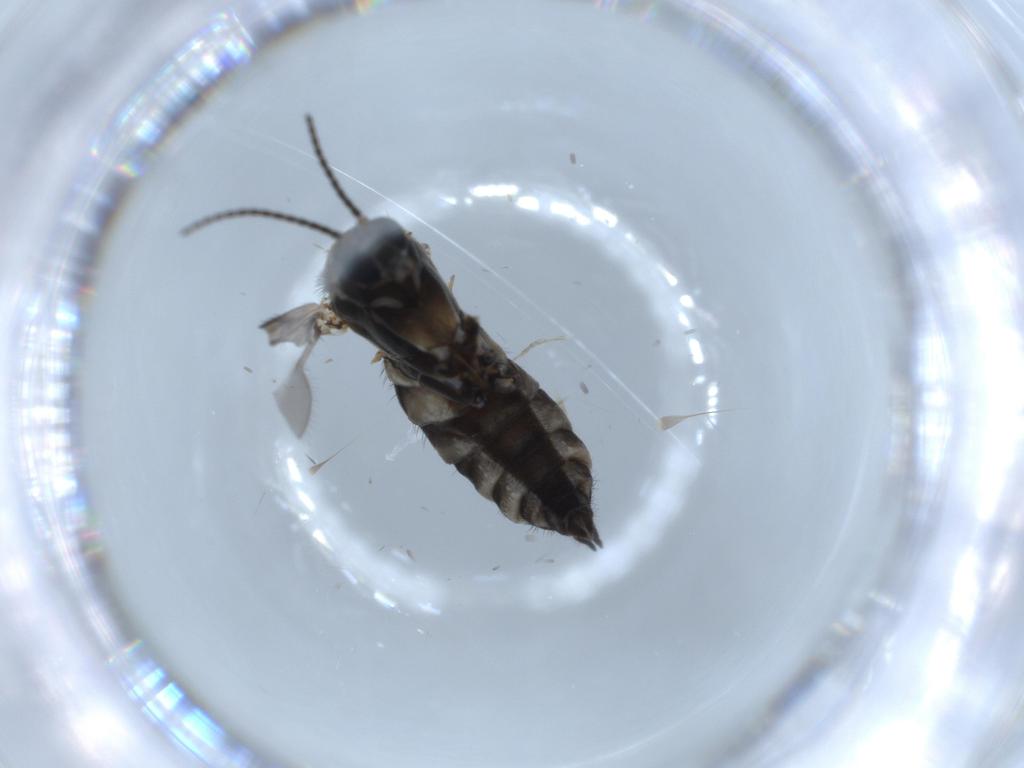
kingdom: Animalia
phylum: Arthropoda
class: Insecta
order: Diptera
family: Sciaridae
